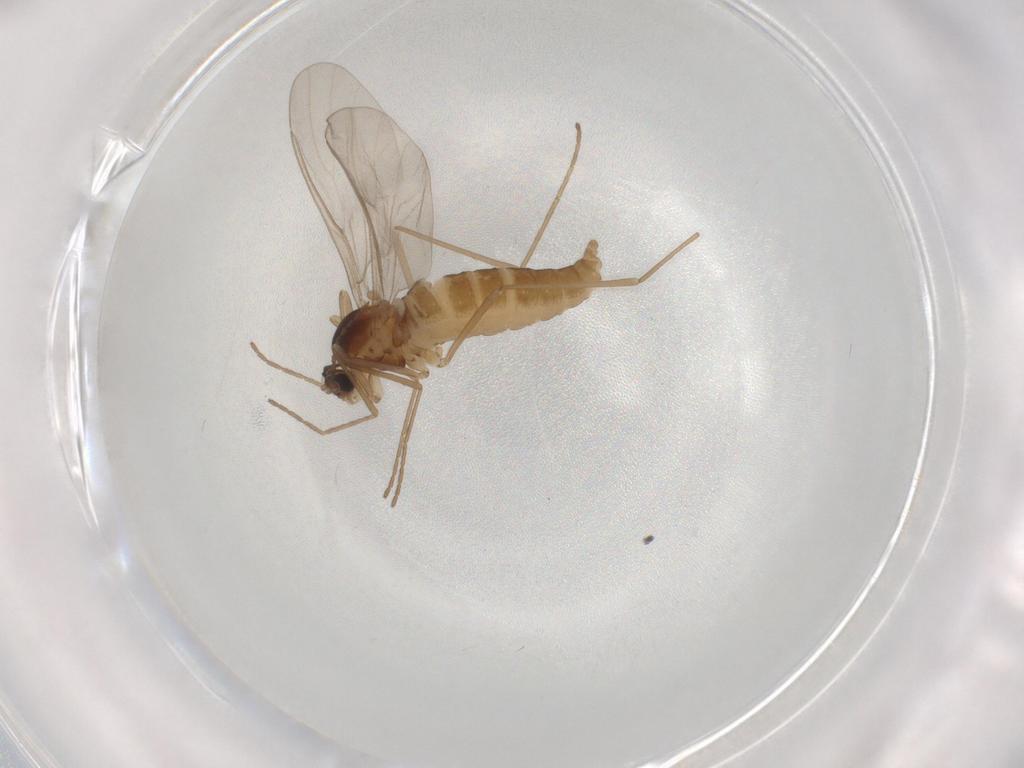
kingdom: Animalia
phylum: Arthropoda
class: Insecta
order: Diptera
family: Cecidomyiidae
